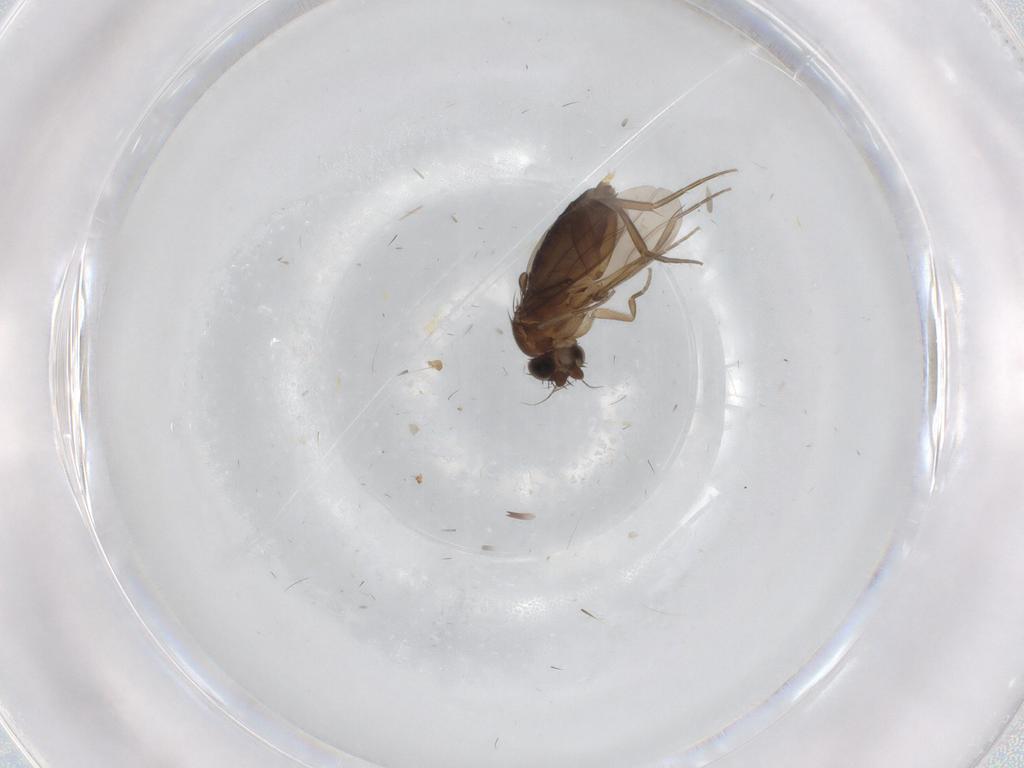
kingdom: Animalia
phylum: Arthropoda
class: Insecta
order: Diptera
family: Phoridae
